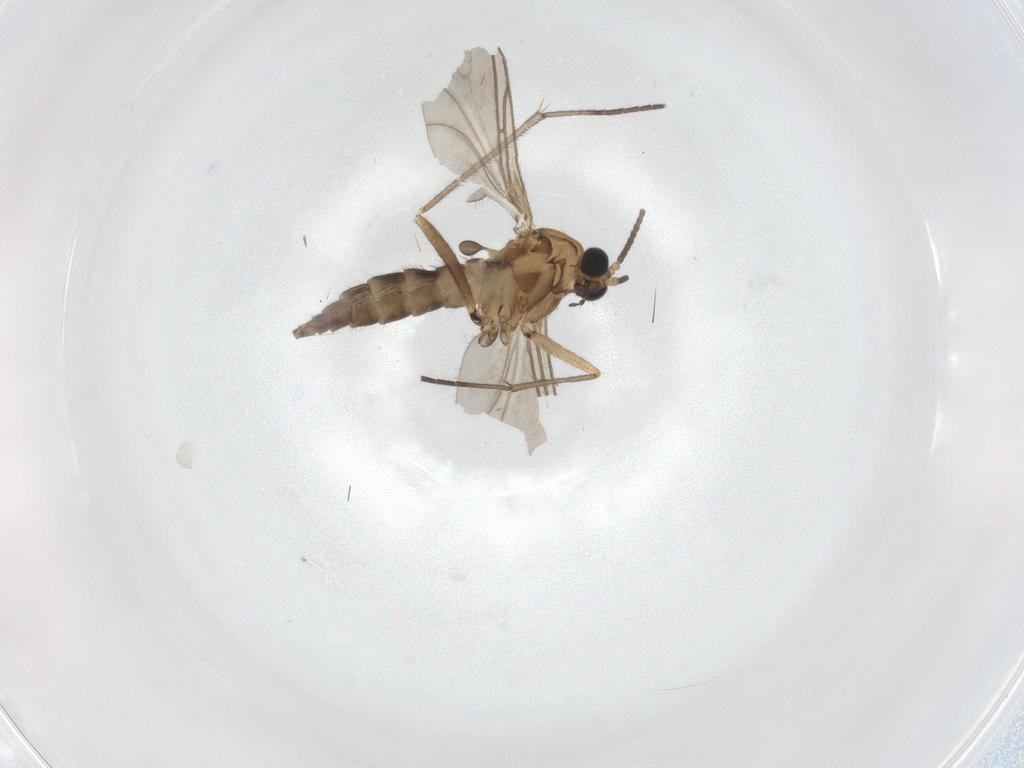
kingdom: Animalia
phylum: Arthropoda
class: Insecta
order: Diptera
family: Sciaridae
